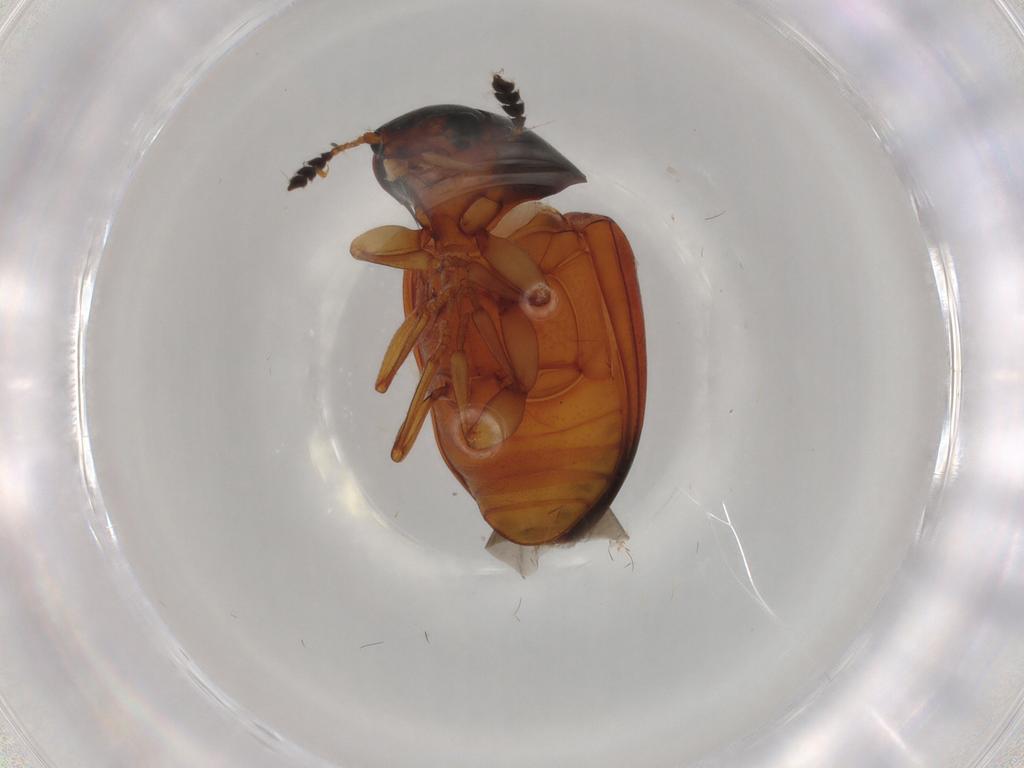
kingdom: Animalia
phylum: Arthropoda
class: Insecta
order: Coleoptera
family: Erotylidae
